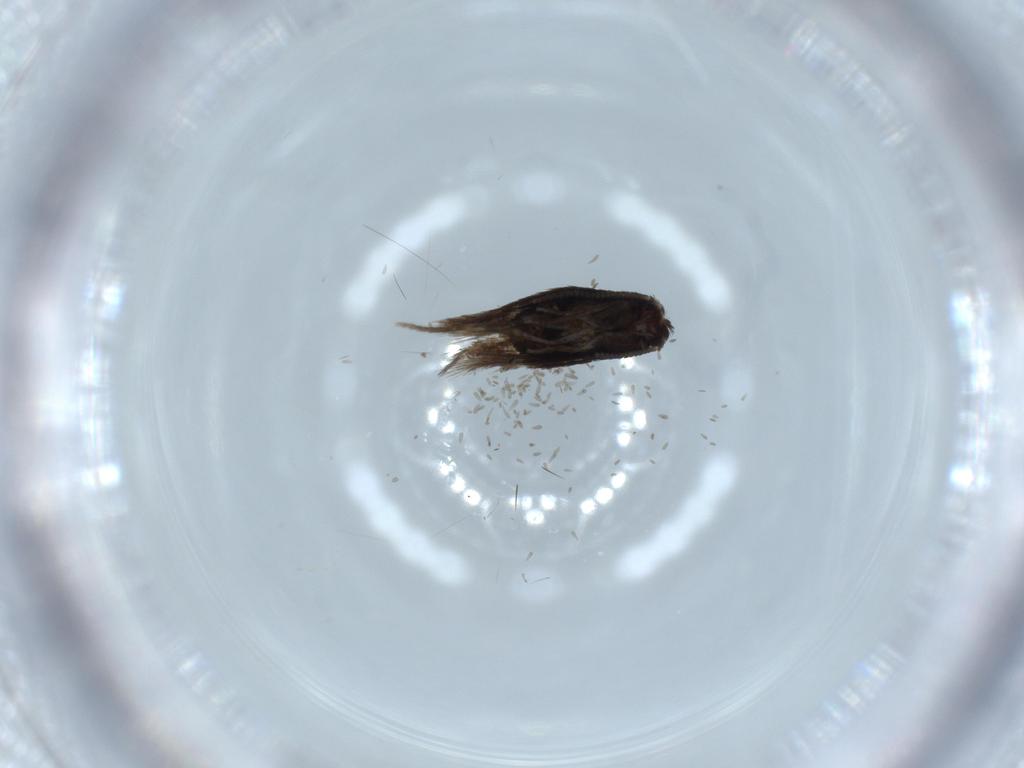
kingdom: Animalia
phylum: Arthropoda
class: Insecta
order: Lepidoptera
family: Nepticulidae
